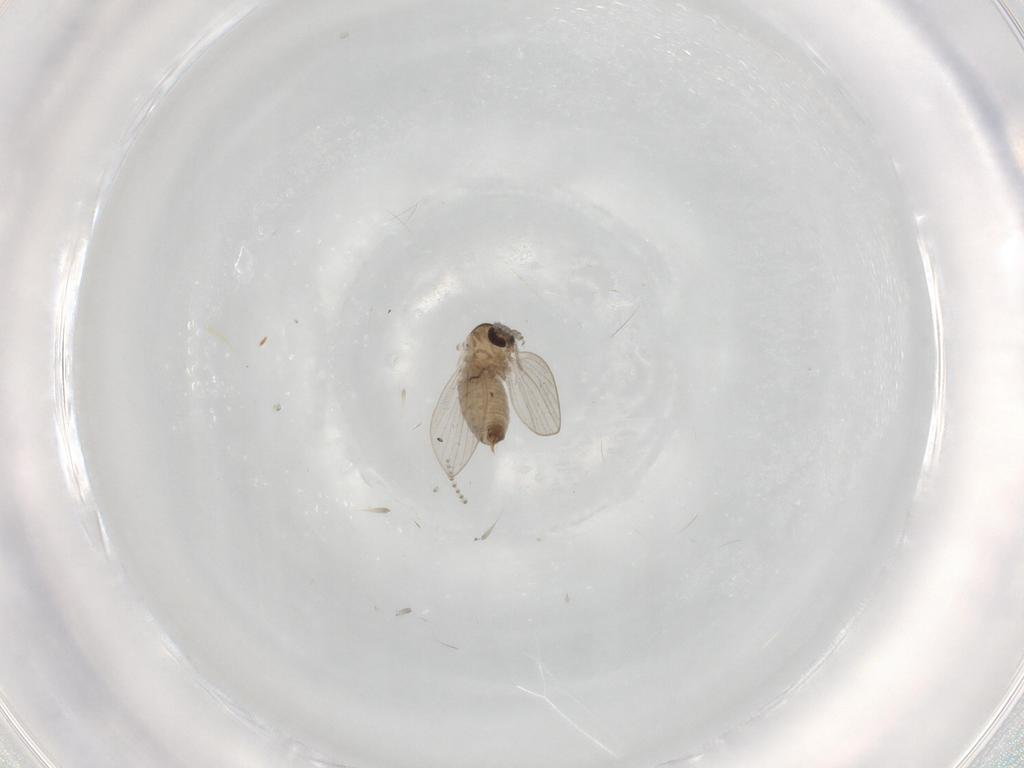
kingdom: Animalia
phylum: Arthropoda
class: Insecta
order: Diptera
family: Psychodidae
